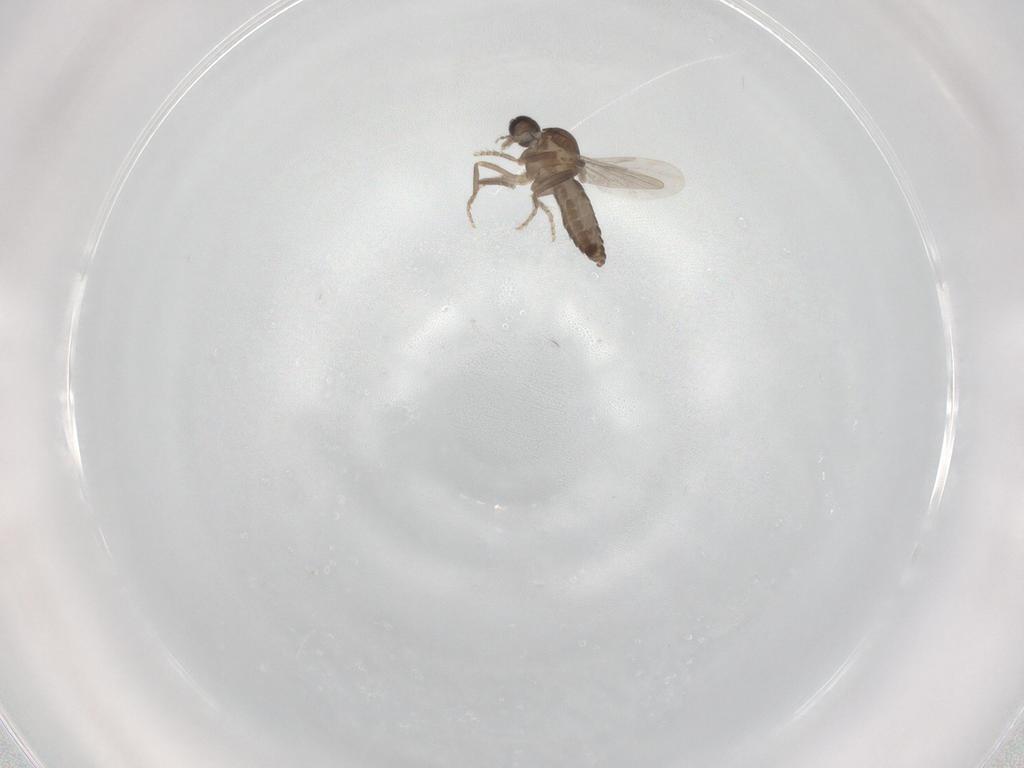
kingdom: Animalia
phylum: Arthropoda
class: Insecta
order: Diptera
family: Ceratopogonidae
